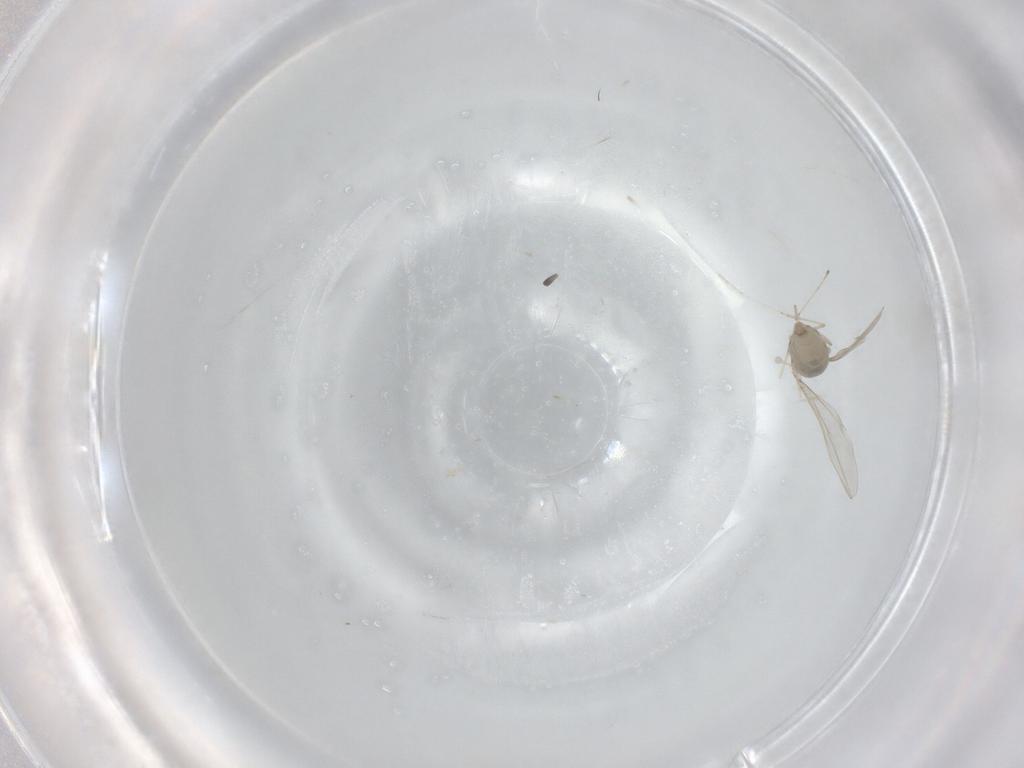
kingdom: Animalia
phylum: Arthropoda
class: Insecta
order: Diptera
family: Cecidomyiidae
